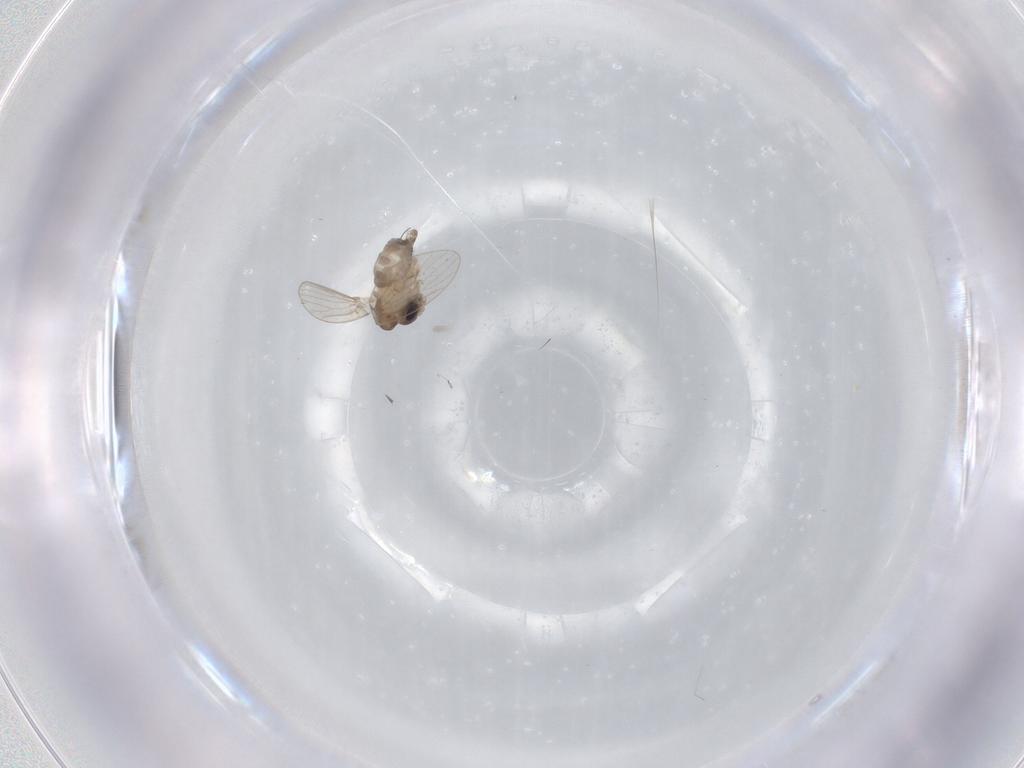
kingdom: Animalia
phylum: Arthropoda
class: Insecta
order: Diptera
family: Psychodidae
